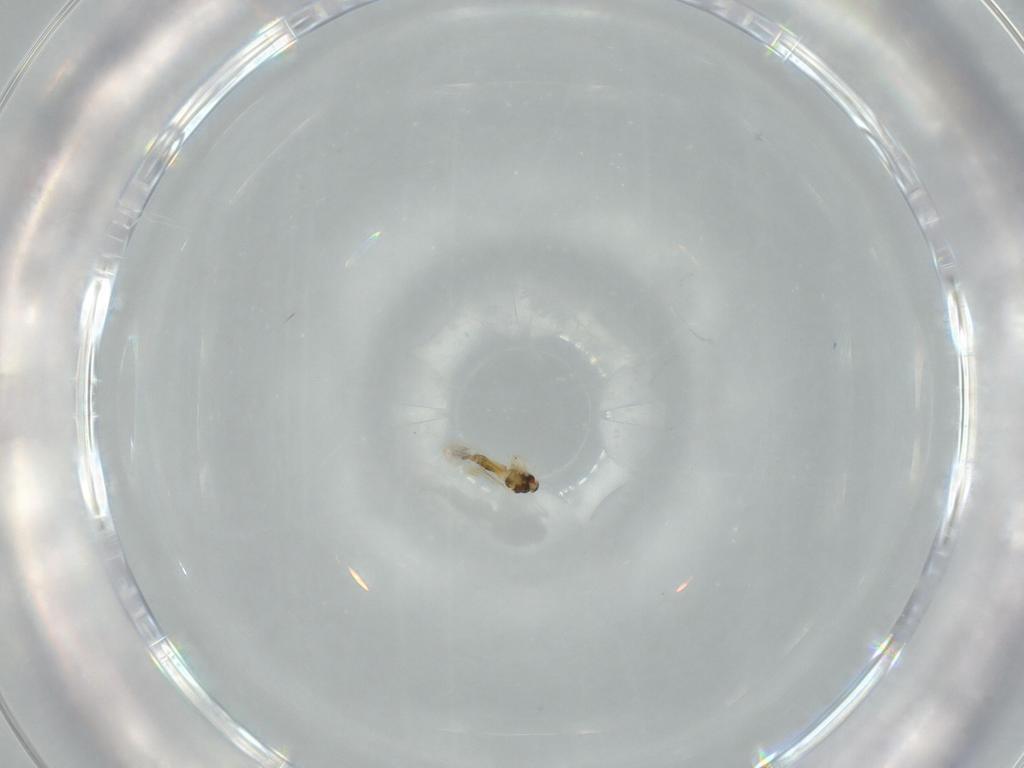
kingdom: Animalia
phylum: Arthropoda
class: Insecta
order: Hemiptera
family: Aleyrodidae
